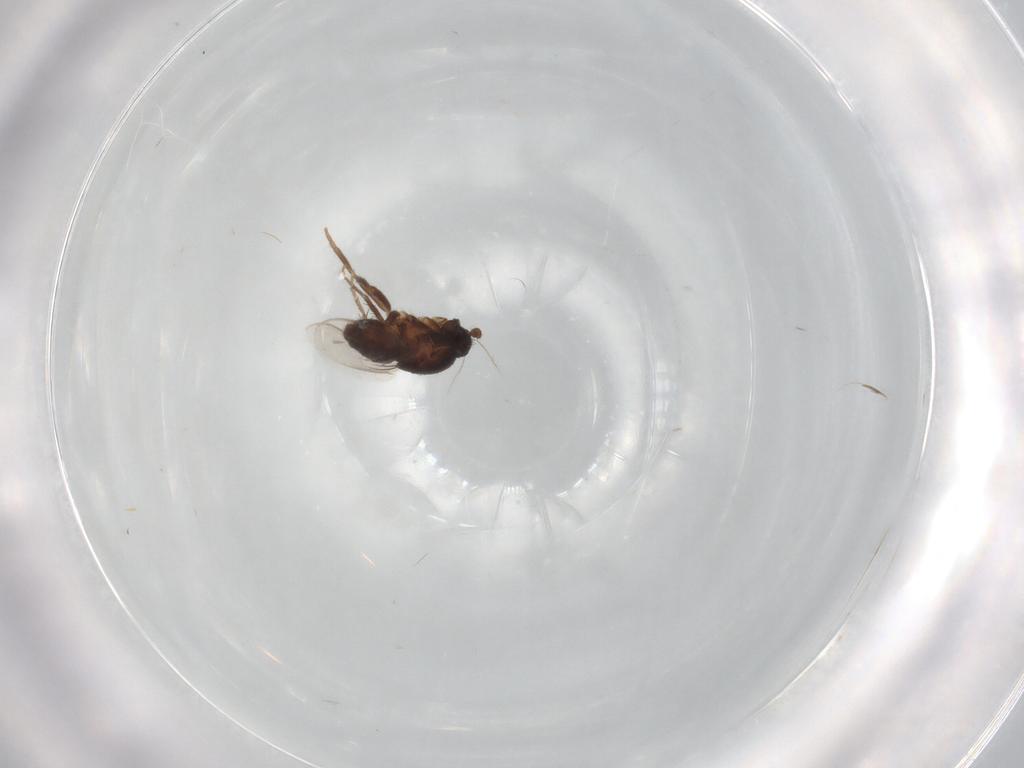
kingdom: Animalia
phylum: Arthropoda
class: Insecta
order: Diptera
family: Sphaeroceridae
